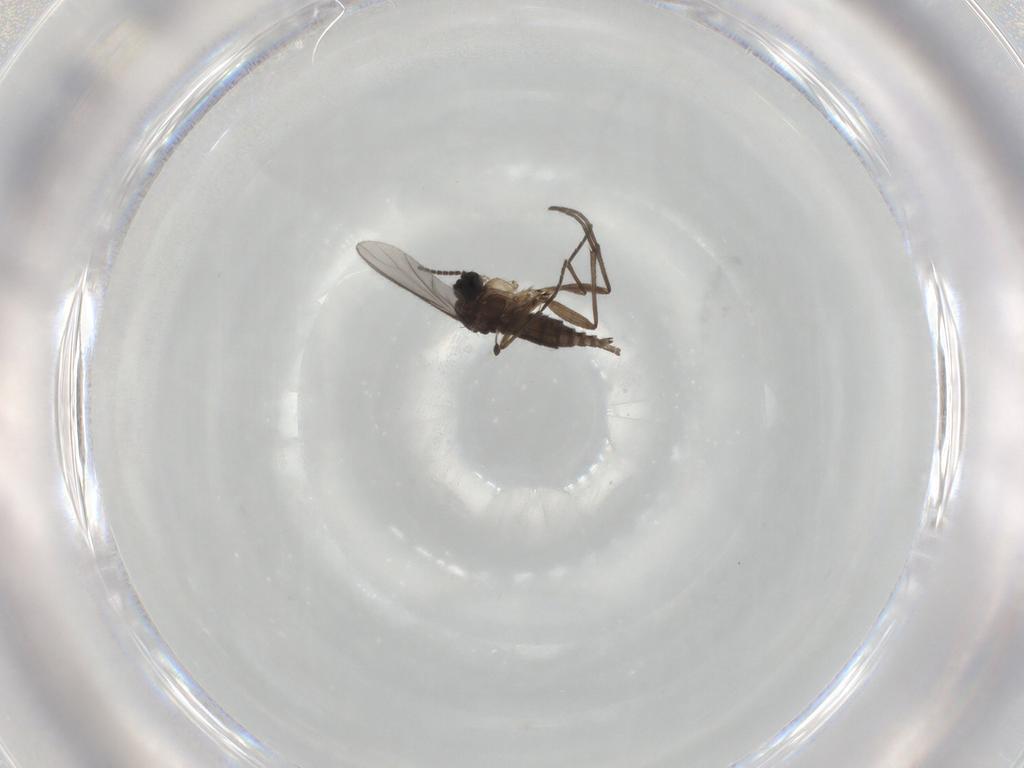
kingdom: Animalia
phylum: Arthropoda
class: Insecta
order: Diptera
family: Sciaridae
